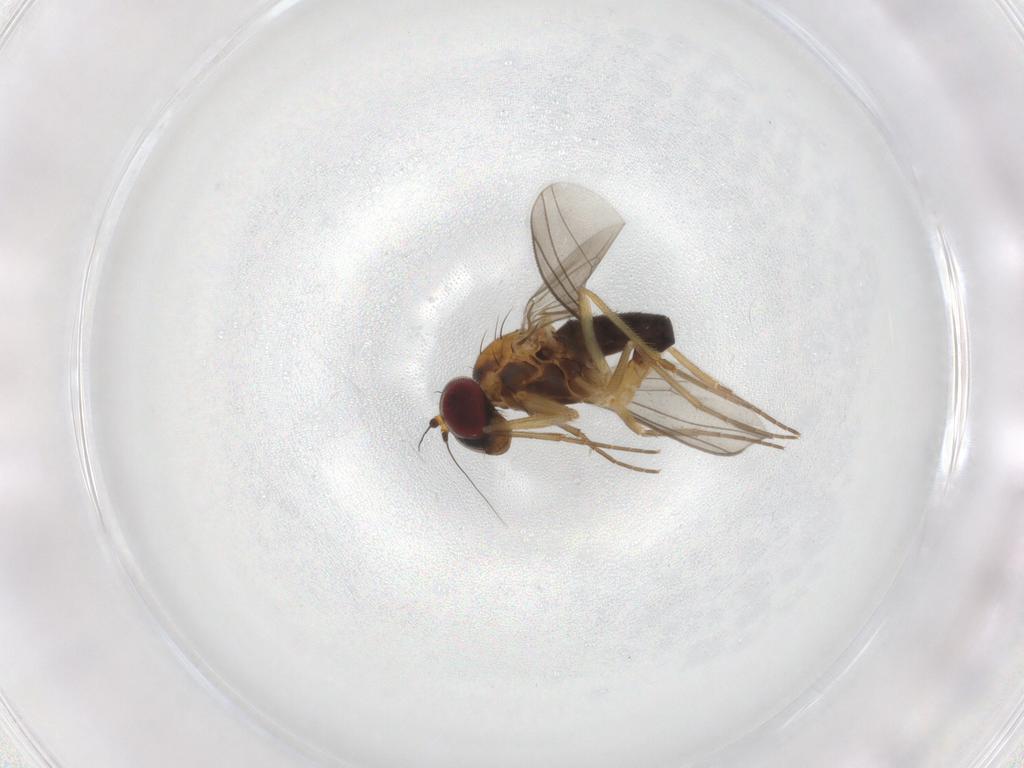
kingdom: Animalia
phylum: Arthropoda
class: Insecta
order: Diptera
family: Dolichopodidae
